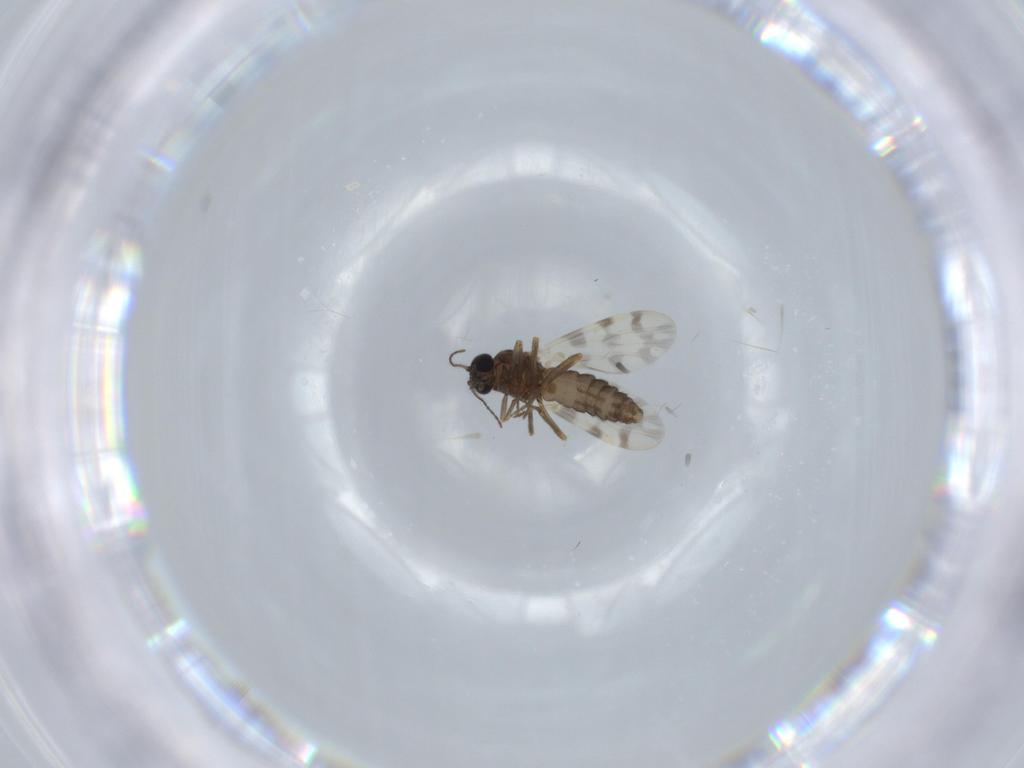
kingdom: Animalia
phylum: Arthropoda
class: Insecta
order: Diptera
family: Ceratopogonidae
